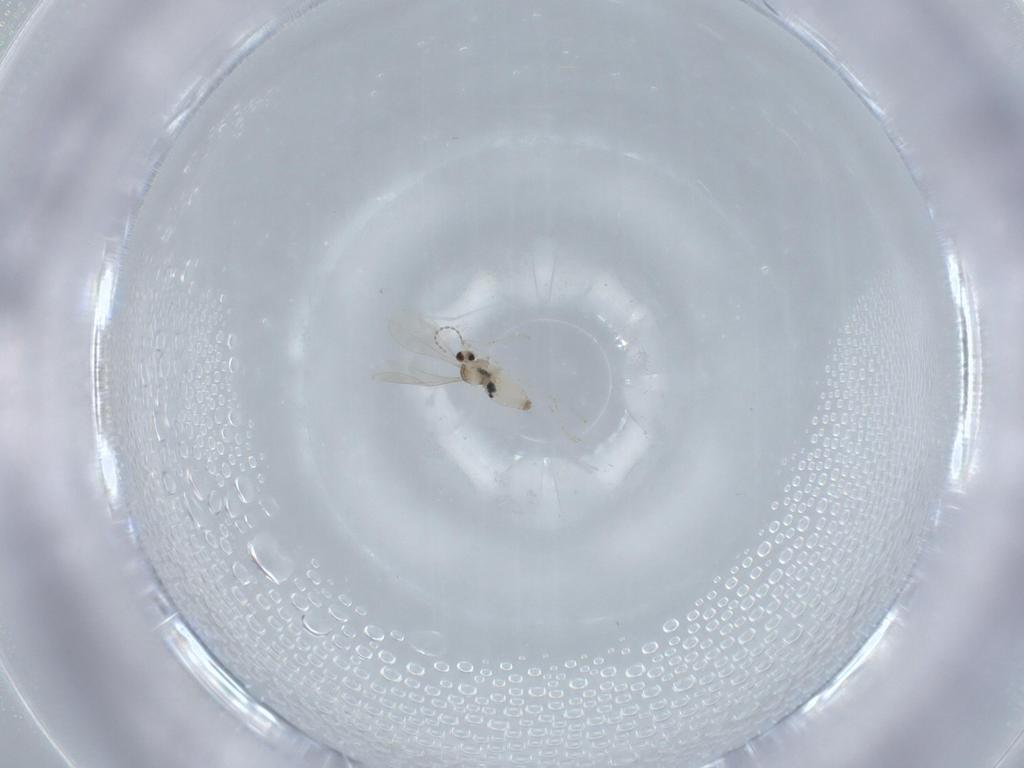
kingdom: Animalia
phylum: Arthropoda
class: Insecta
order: Diptera
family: Cecidomyiidae
